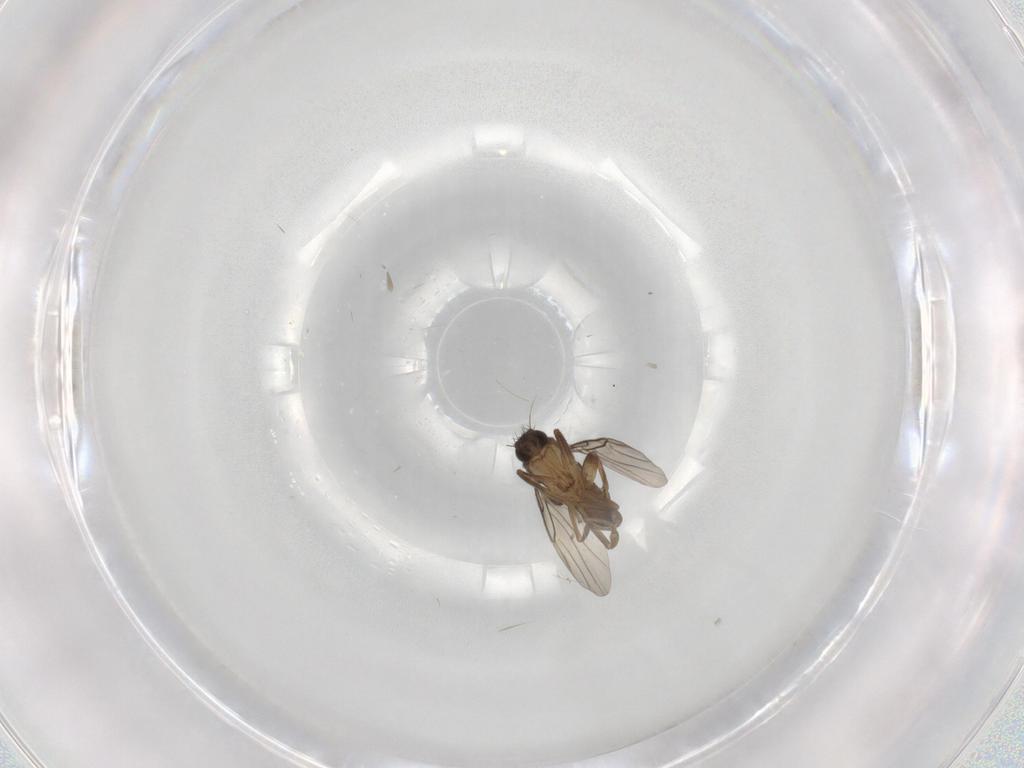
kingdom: Animalia
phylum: Arthropoda
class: Insecta
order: Diptera
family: Phoridae
